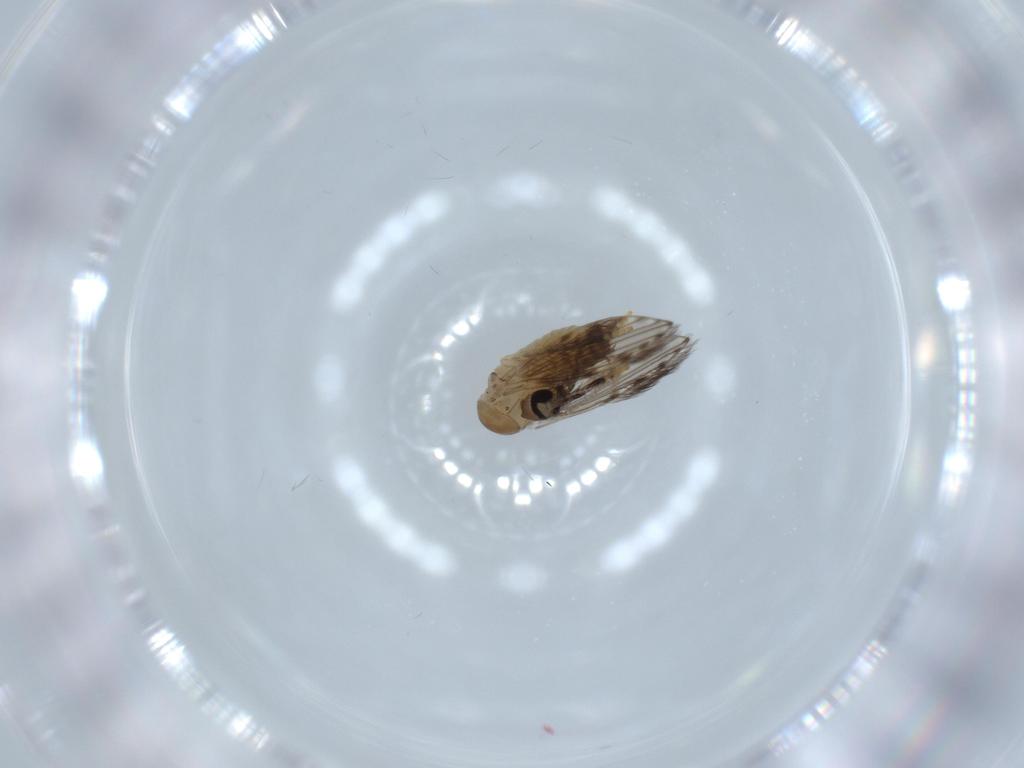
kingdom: Animalia
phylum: Arthropoda
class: Insecta
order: Diptera
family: Psychodidae
